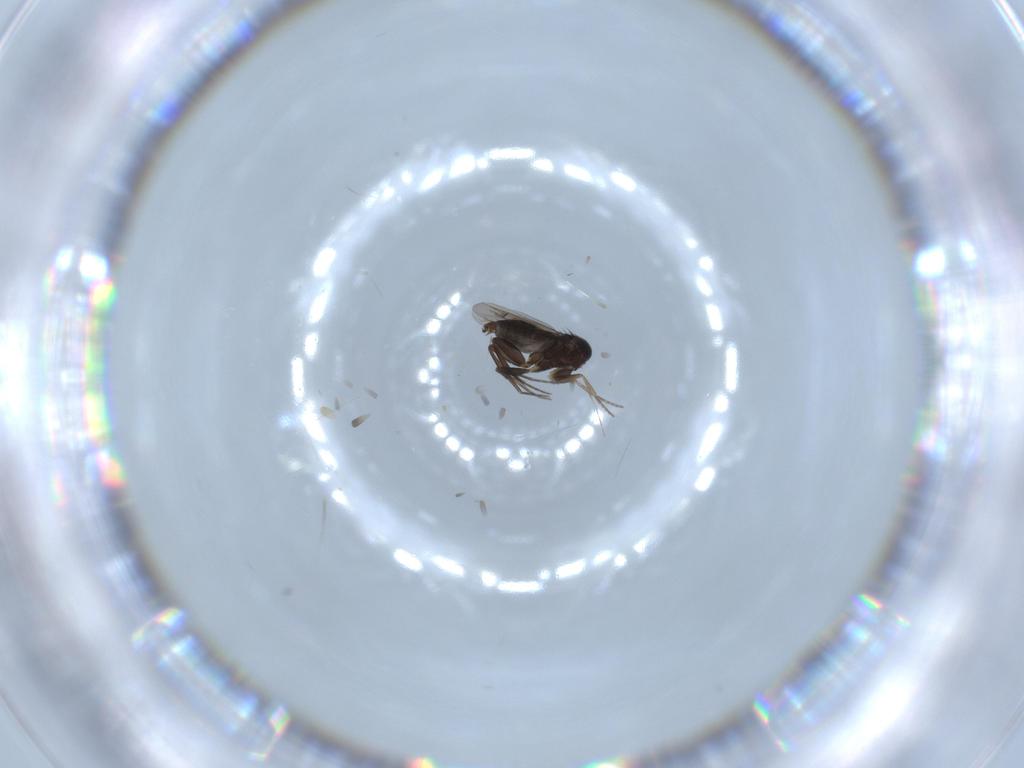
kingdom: Animalia
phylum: Arthropoda
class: Insecta
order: Diptera
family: Phoridae
